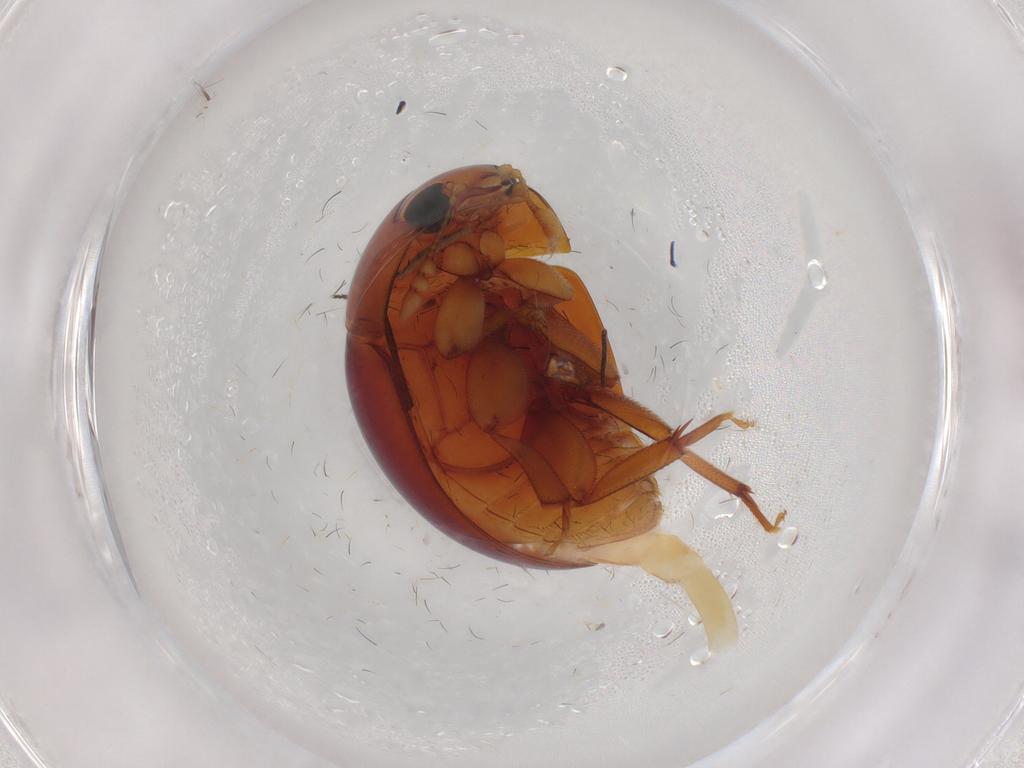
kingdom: Animalia
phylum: Arthropoda
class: Insecta
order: Coleoptera
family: Phalacridae
